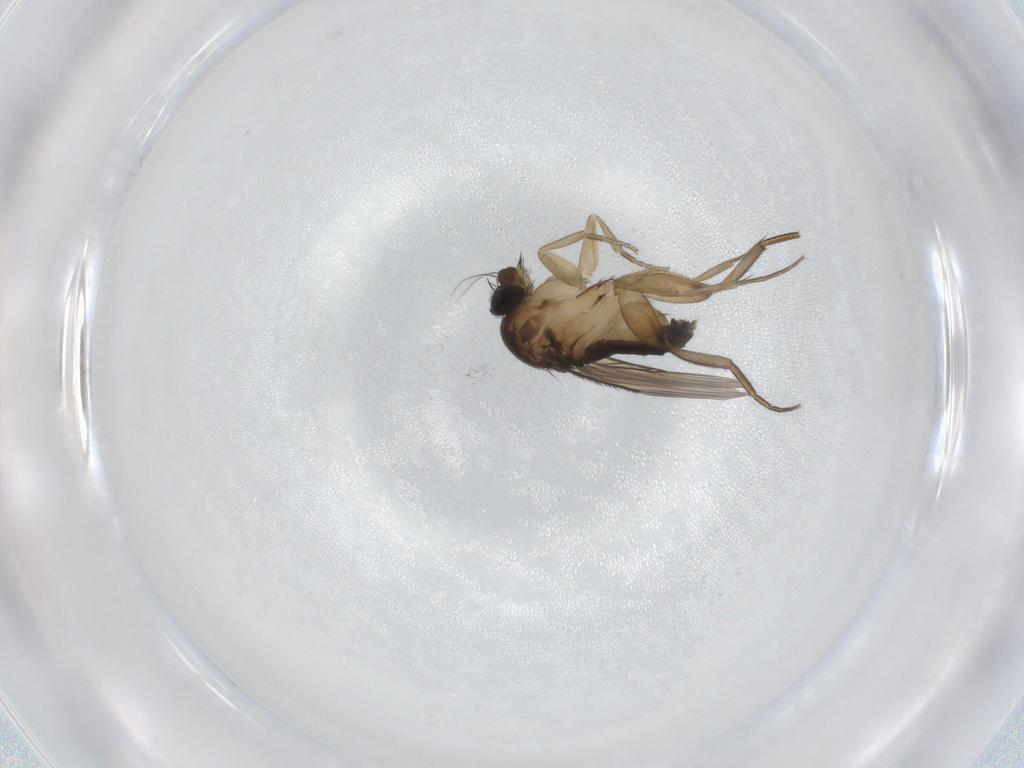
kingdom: Animalia
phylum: Arthropoda
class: Insecta
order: Diptera
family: Phoridae
